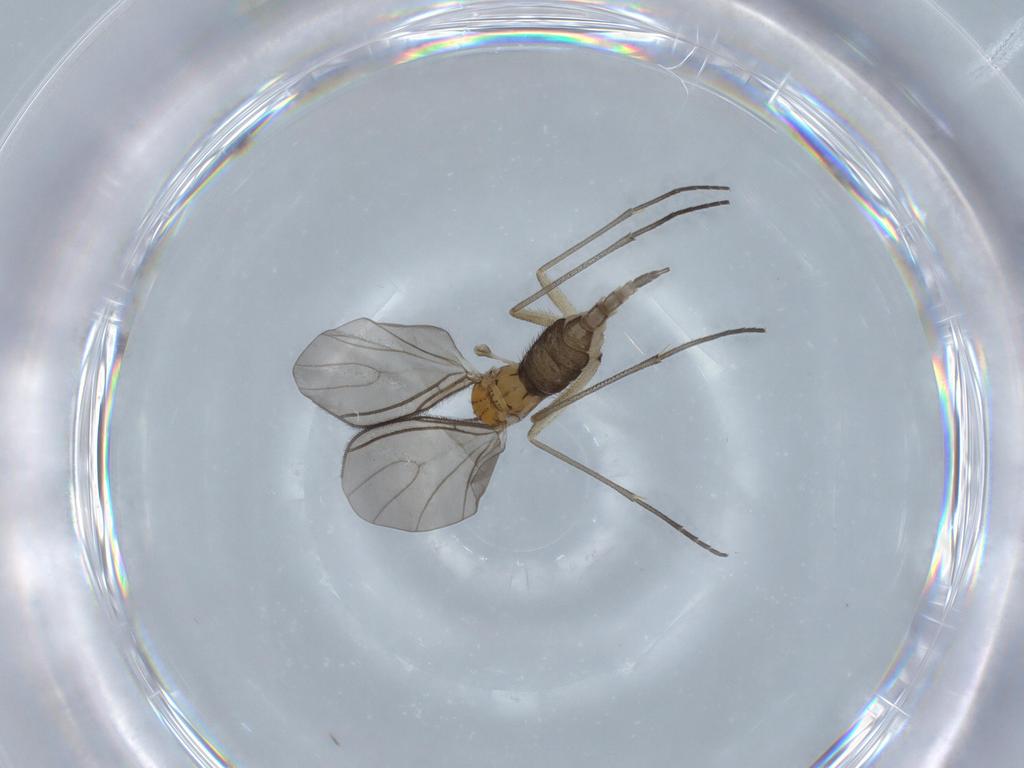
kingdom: Animalia
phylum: Arthropoda
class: Insecta
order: Diptera
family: Sciaridae
